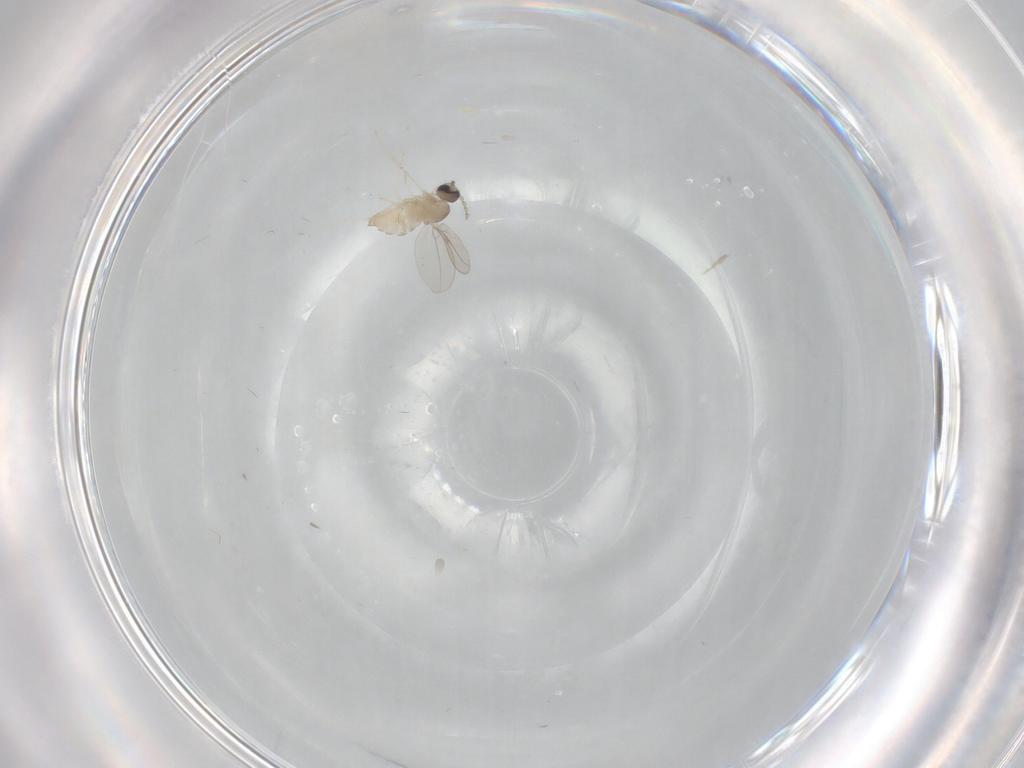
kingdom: Animalia
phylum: Arthropoda
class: Insecta
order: Diptera
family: Cecidomyiidae
